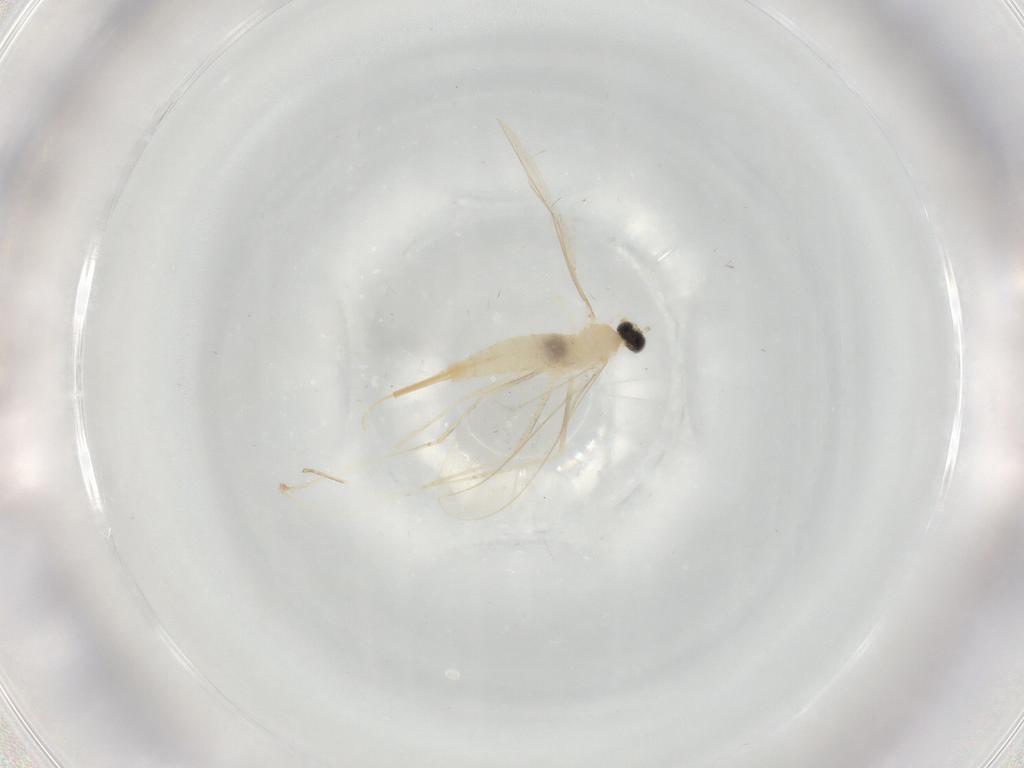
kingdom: Animalia
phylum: Arthropoda
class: Insecta
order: Diptera
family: Cecidomyiidae
